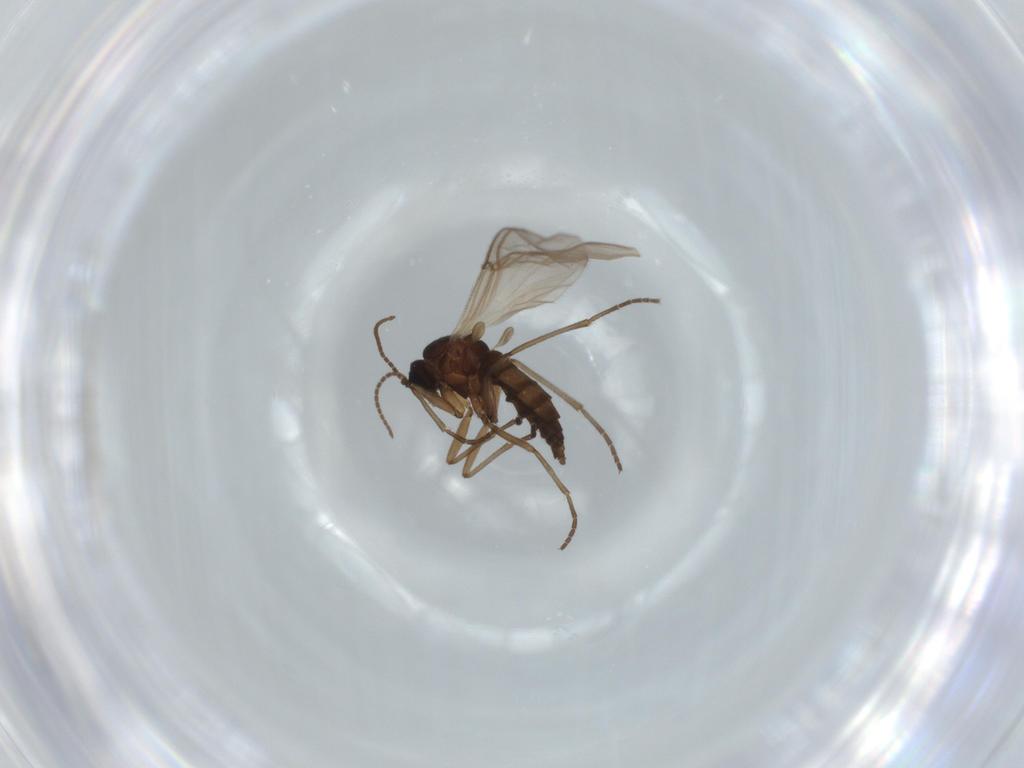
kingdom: Animalia
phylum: Arthropoda
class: Insecta
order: Diptera
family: Sciaridae
